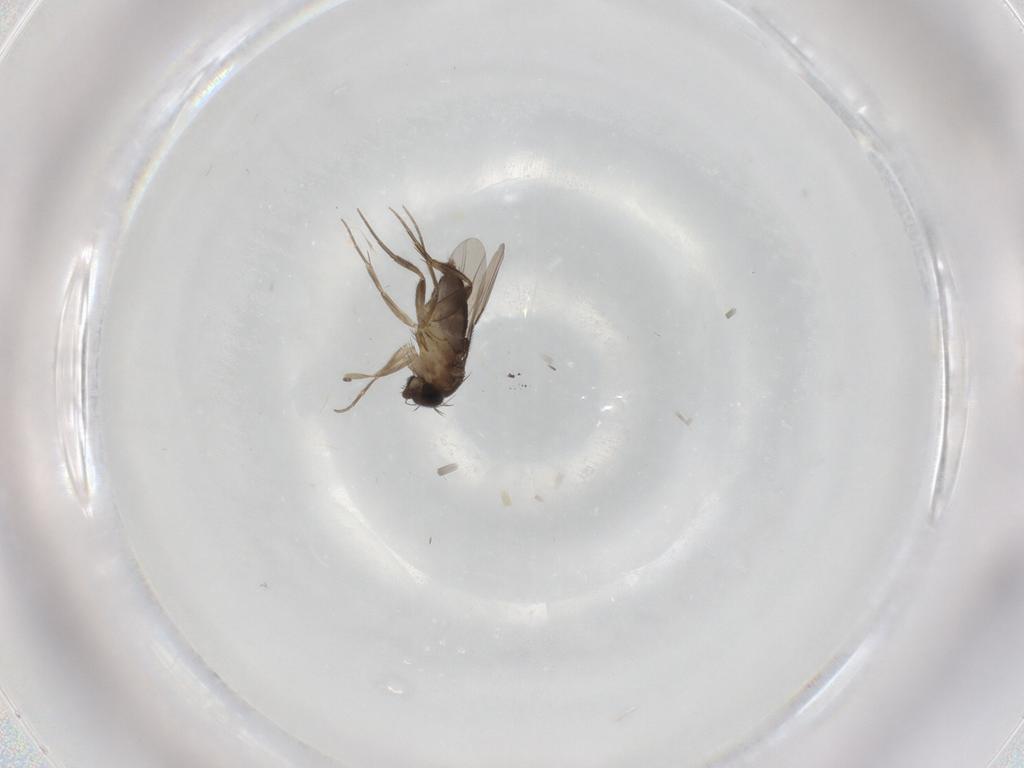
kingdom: Animalia
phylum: Arthropoda
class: Insecta
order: Diptera
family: Phoridae
